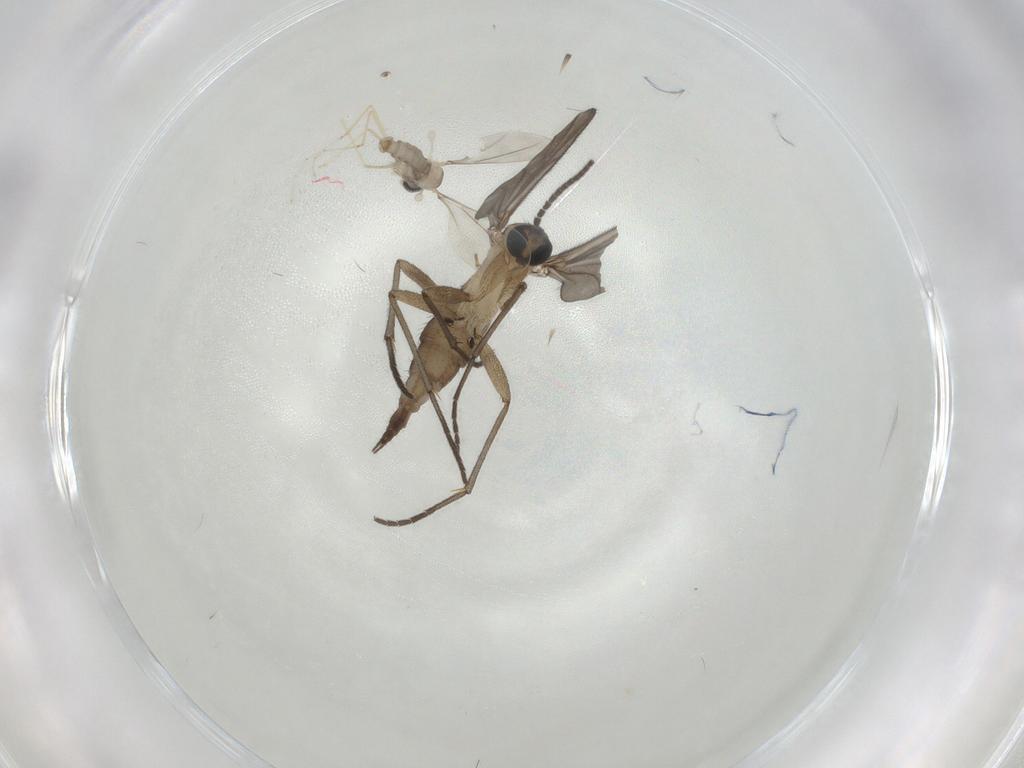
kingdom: Animalia
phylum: Arthropoda
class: Insecta
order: Diptera
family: Sciaridae
